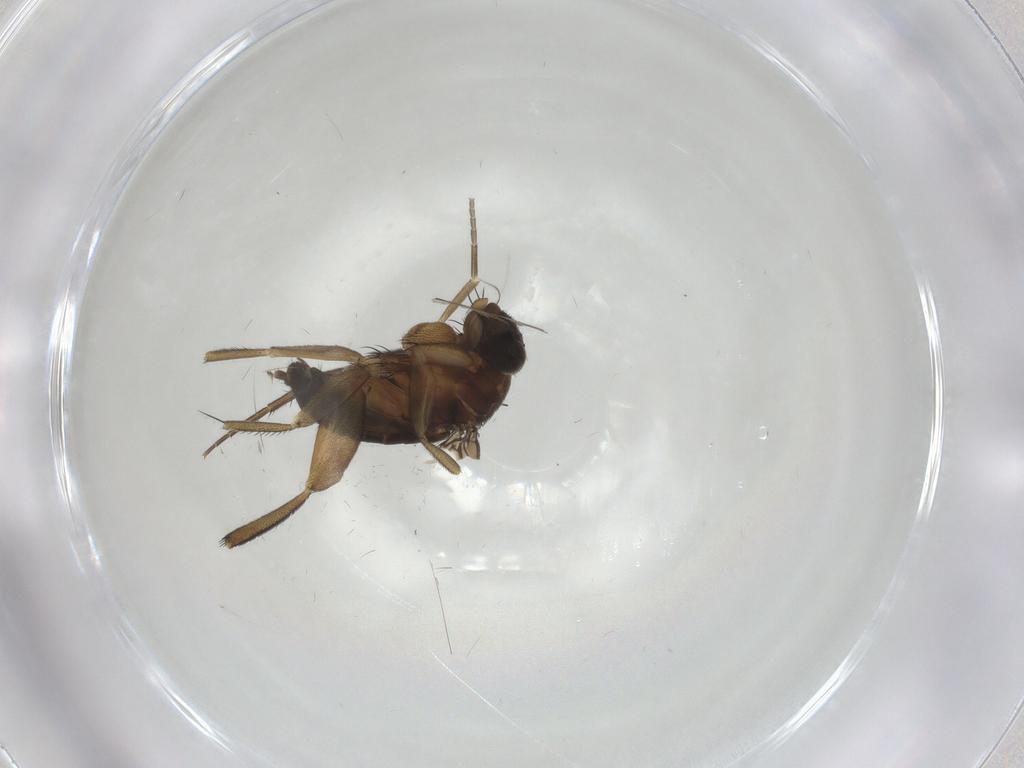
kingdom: Animalia
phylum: Arthropoda
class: Insecta
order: Diptera
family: Phoridae
